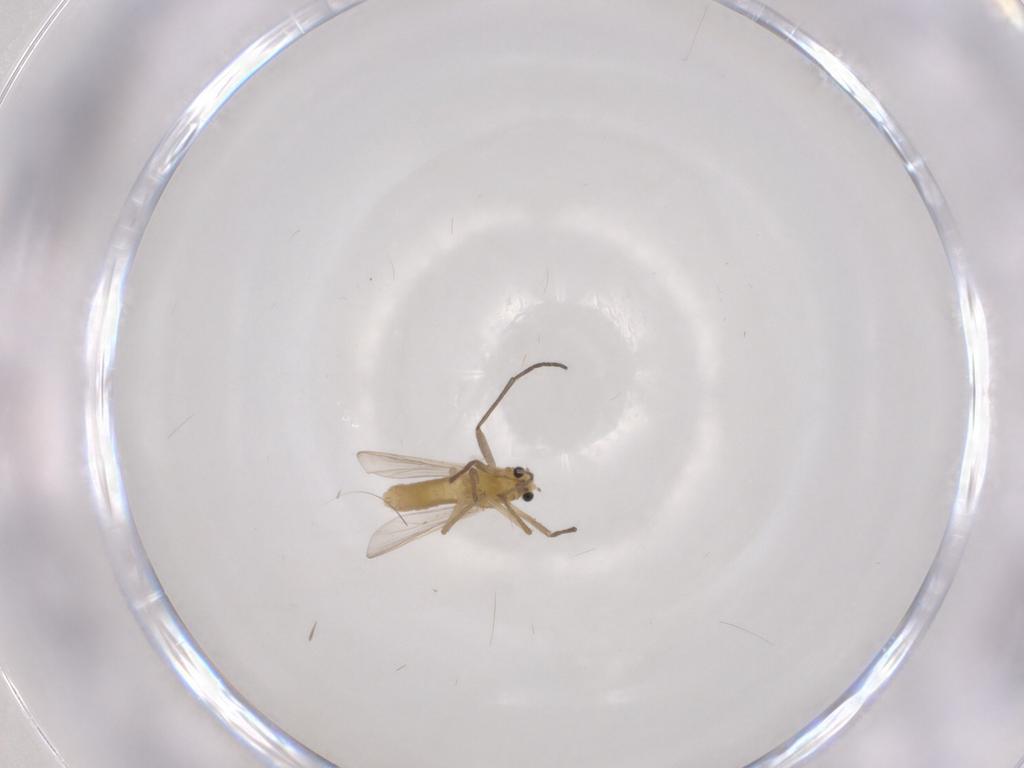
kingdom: Animalia
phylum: Arthropoda
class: Insecta
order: Diptera
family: Chironomidae
